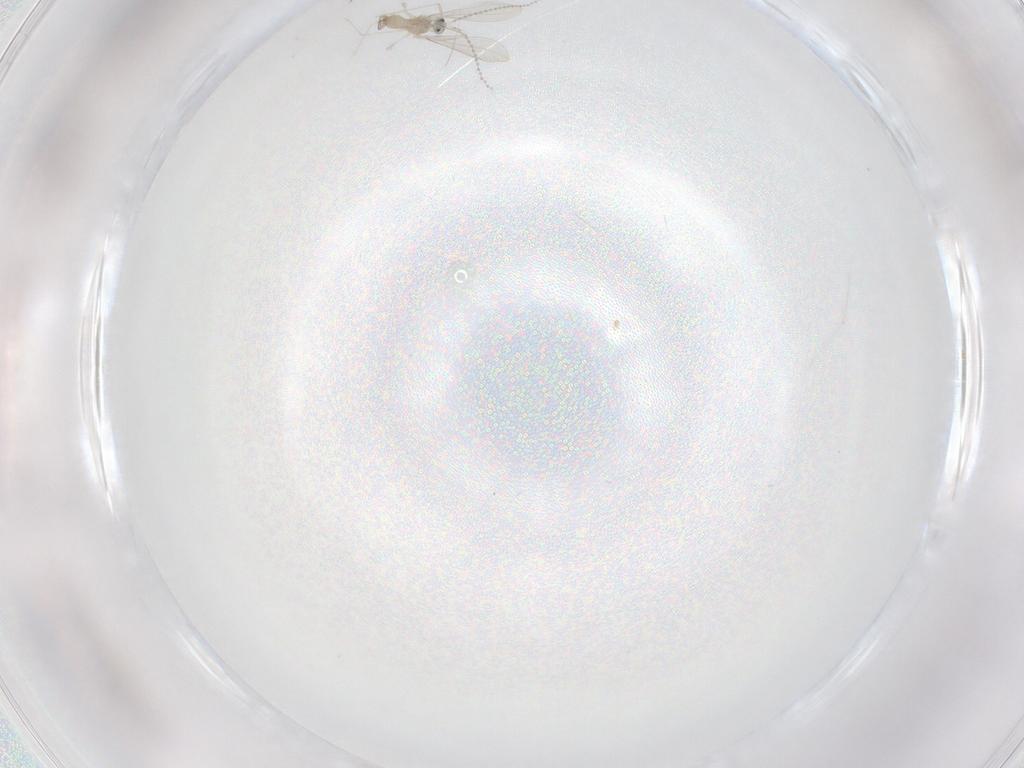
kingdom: Animalia
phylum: Arthropoda
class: Insecta
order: Diptera
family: Cecidomyiidae
